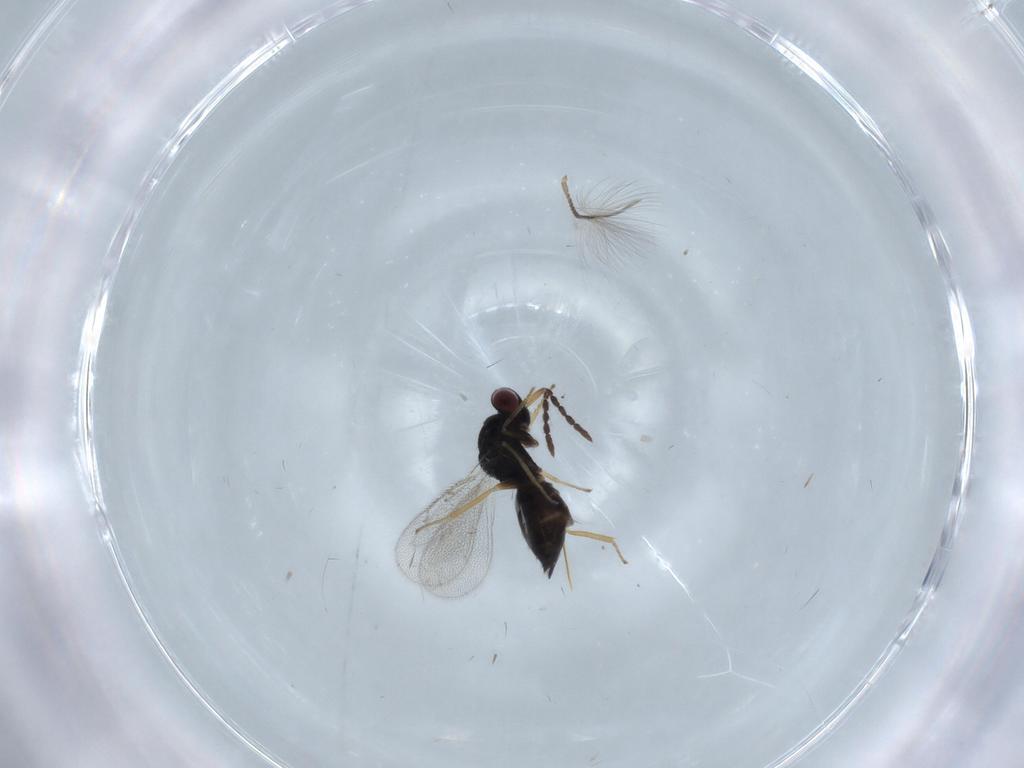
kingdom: Animalia
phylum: Arthropoda
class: Insecta
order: Hymenoptera
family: Eulophidae
